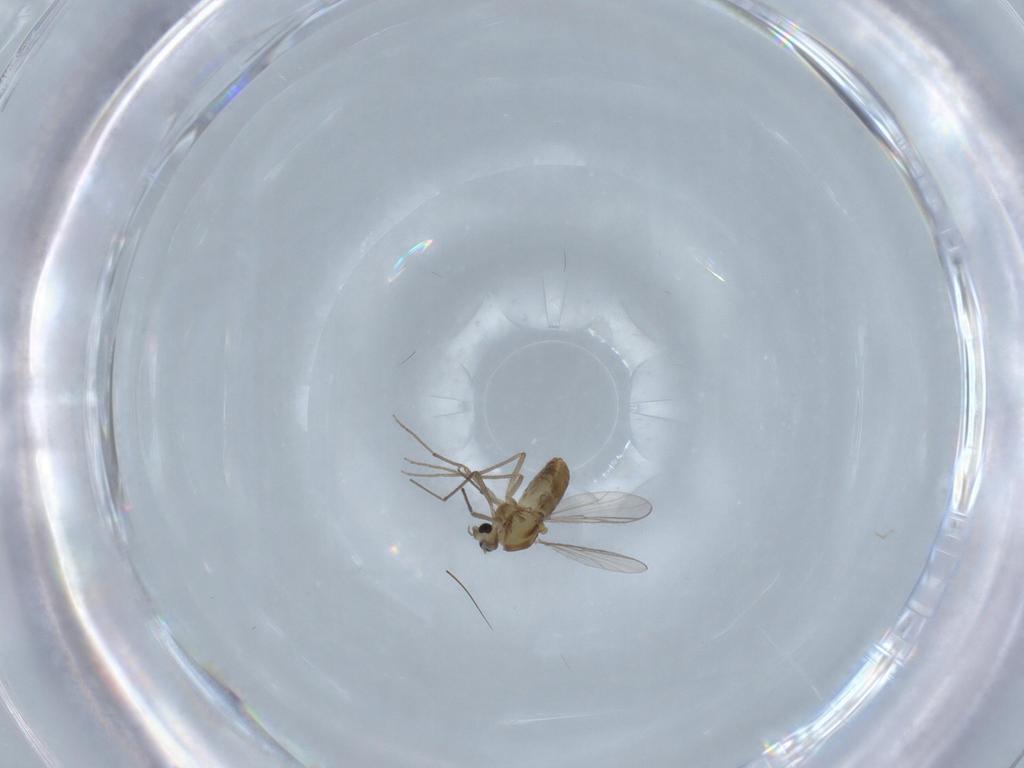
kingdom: Animalia
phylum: Arthropoda
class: Insecta
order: Diptera
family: Chironomidae
